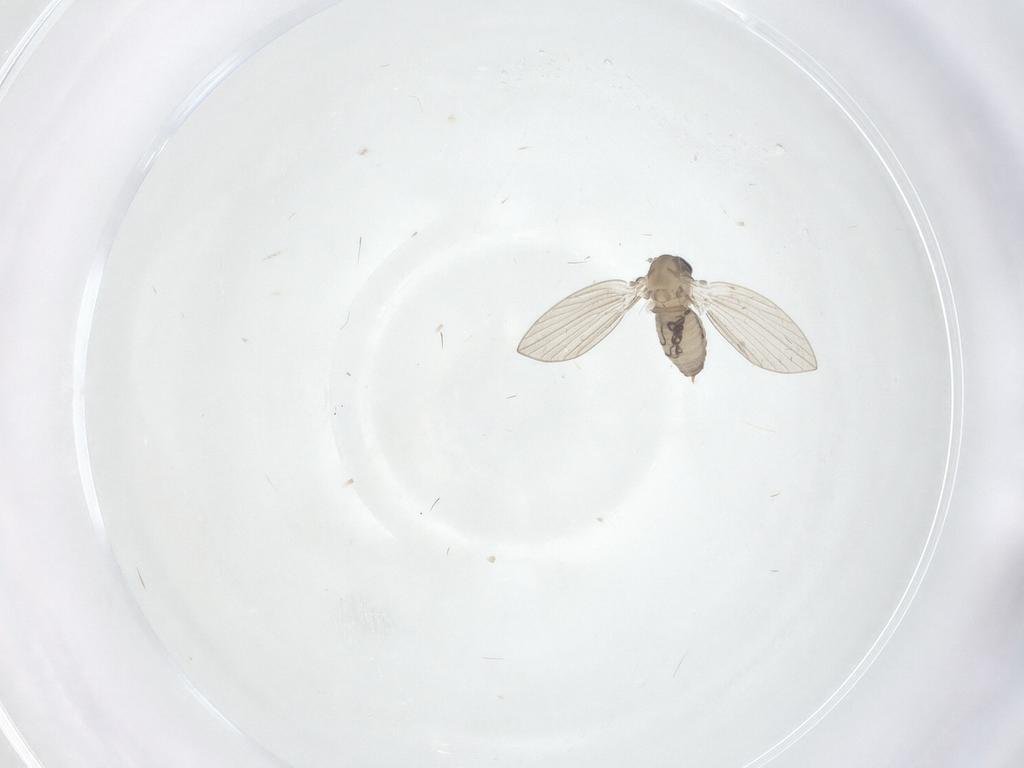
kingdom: Animalia
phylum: Arthropoda
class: Insecta
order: Diptera
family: Psychodidae
